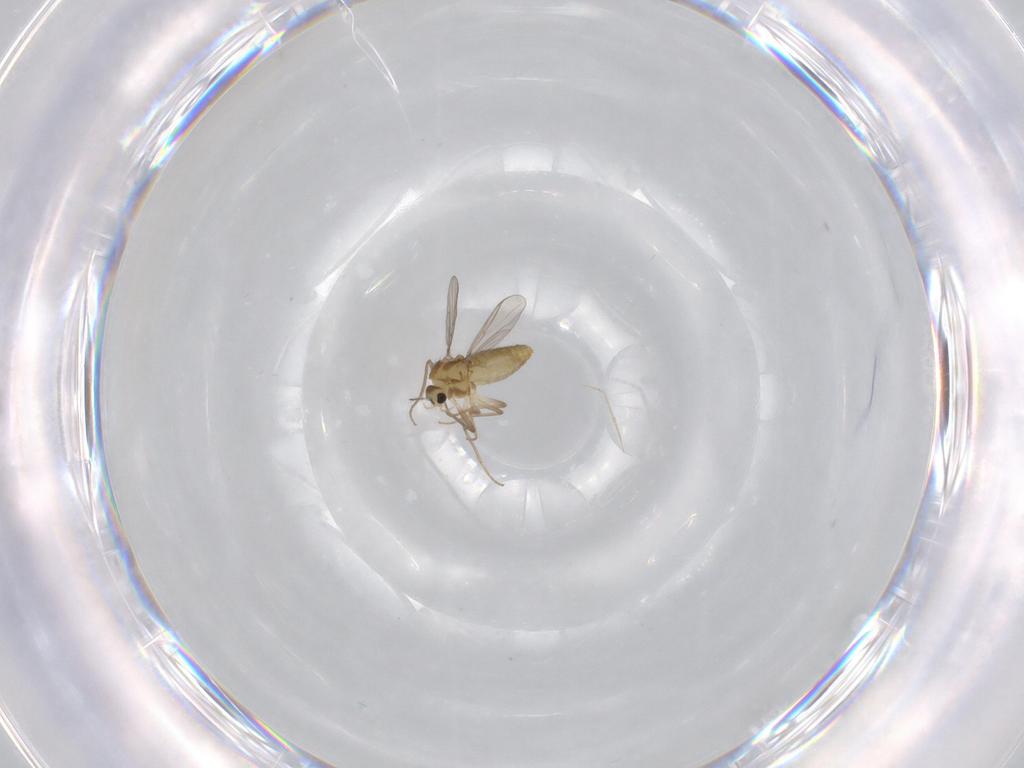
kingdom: Animalia
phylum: Arthropoda
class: Insecta
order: Diptera
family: Chironomidae
